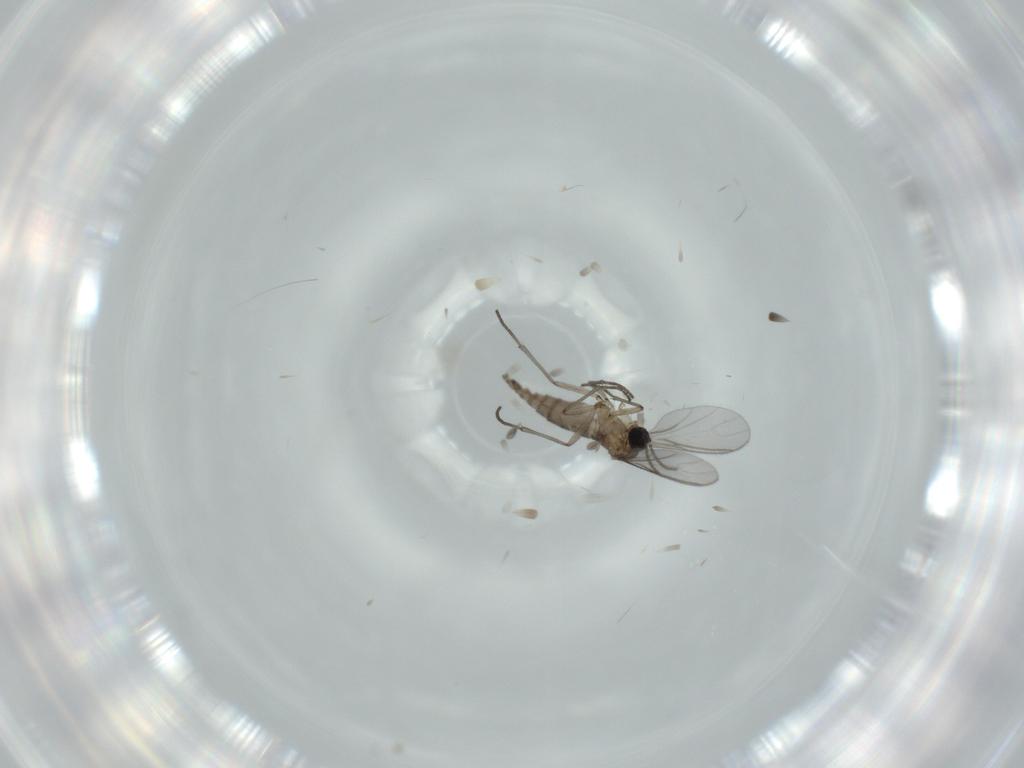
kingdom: Animalia
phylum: Arthropoda
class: Insecta
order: Diptera
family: Sciaridae
